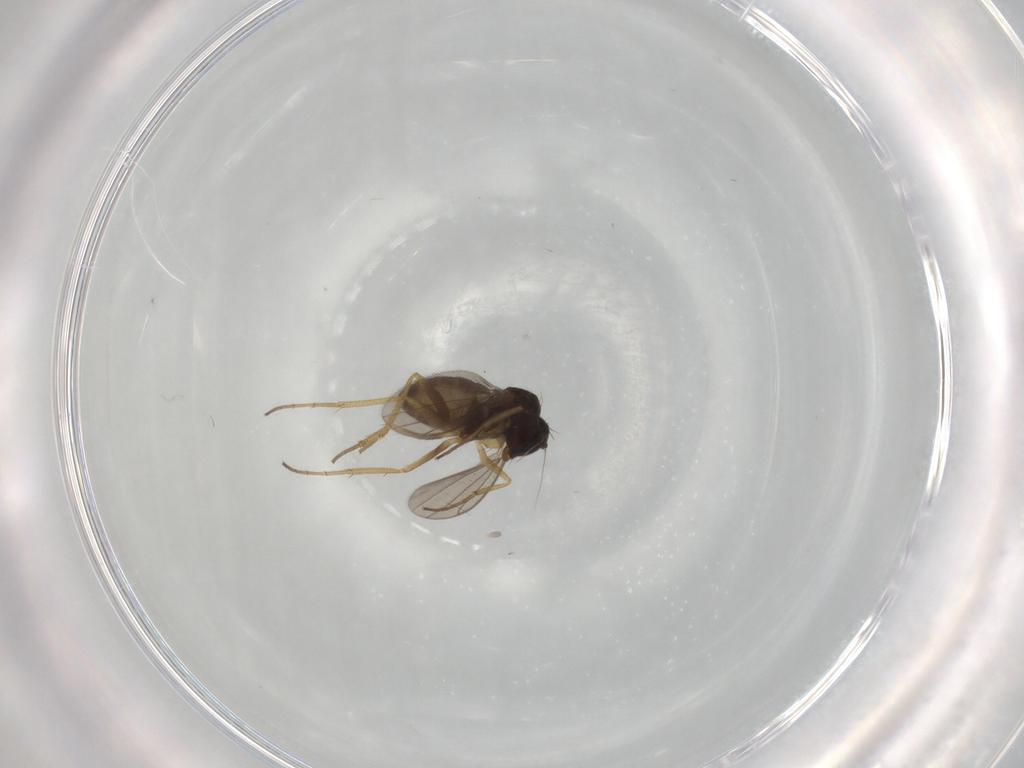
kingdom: Animalia
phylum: Arthropoda
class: Insecta
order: Diptera
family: Dolichopodidae
